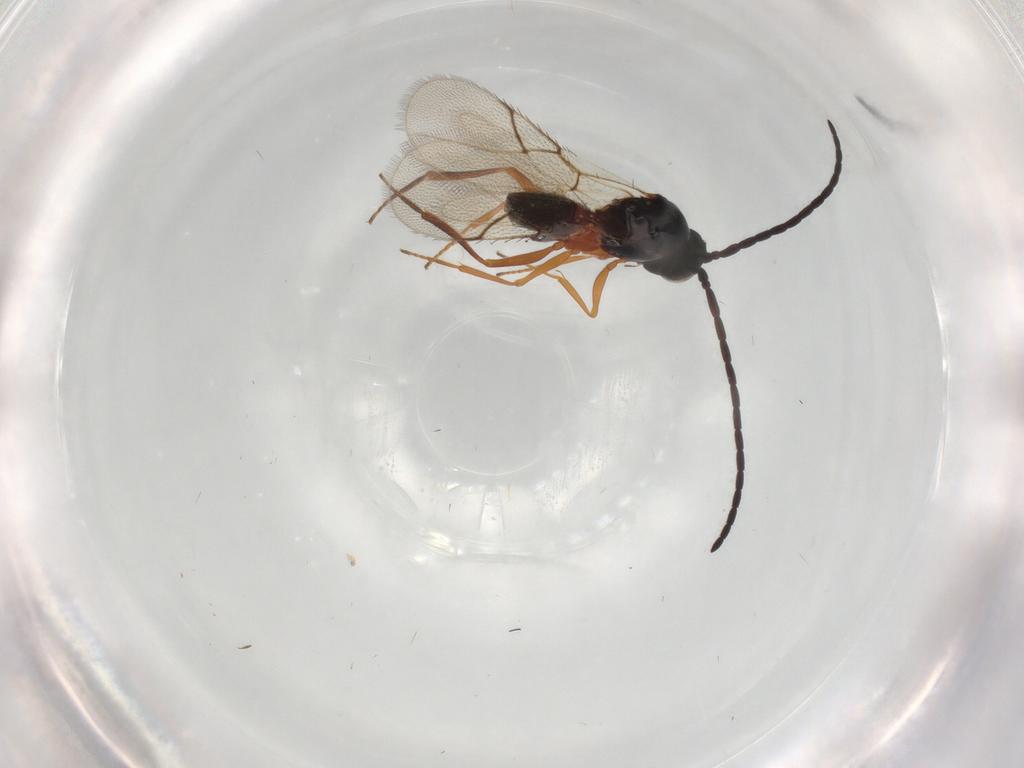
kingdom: Animalia
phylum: Arthropoda
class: Insecta
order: Hymenoptera
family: Figitidae
